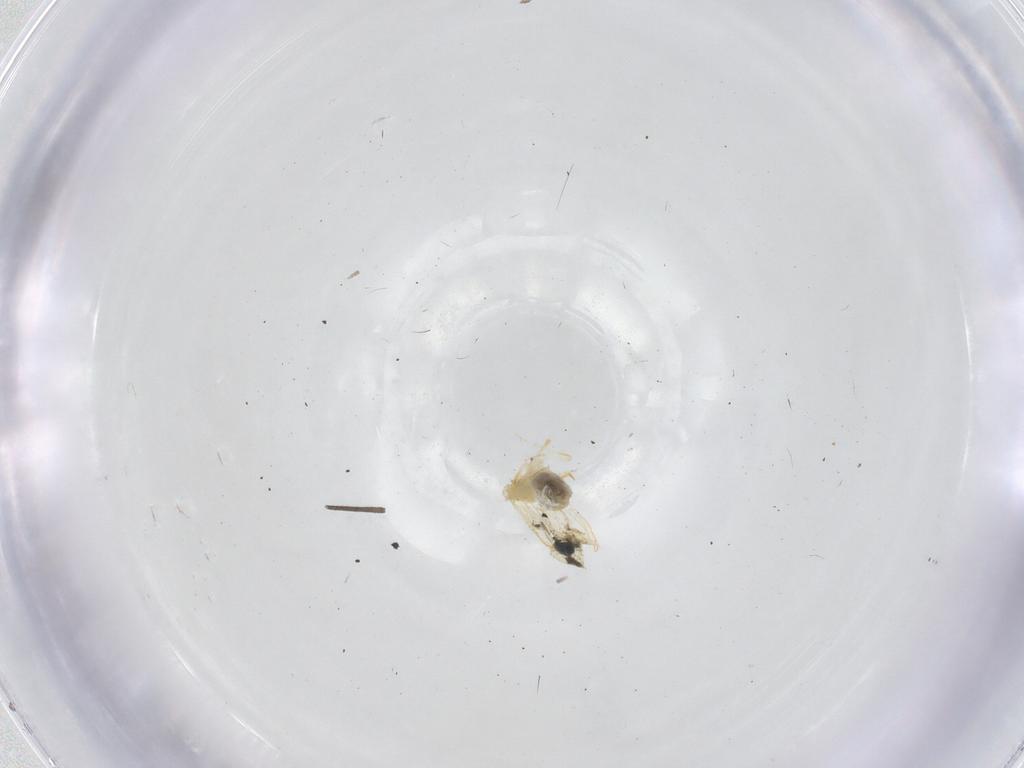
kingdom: Animalia
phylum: Arthropoda
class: Insecta
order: Hemiptera
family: Aleyrodidae
